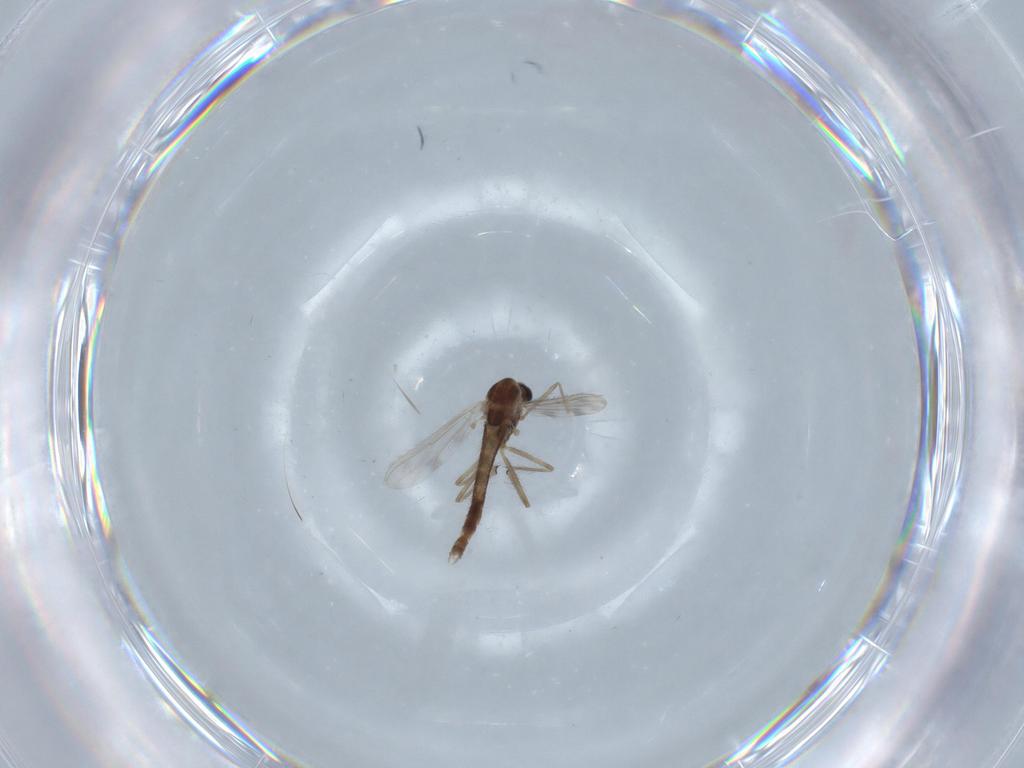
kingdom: Animalia
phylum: Arthropoda
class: Insecta
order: Diptera
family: Chironomidae
